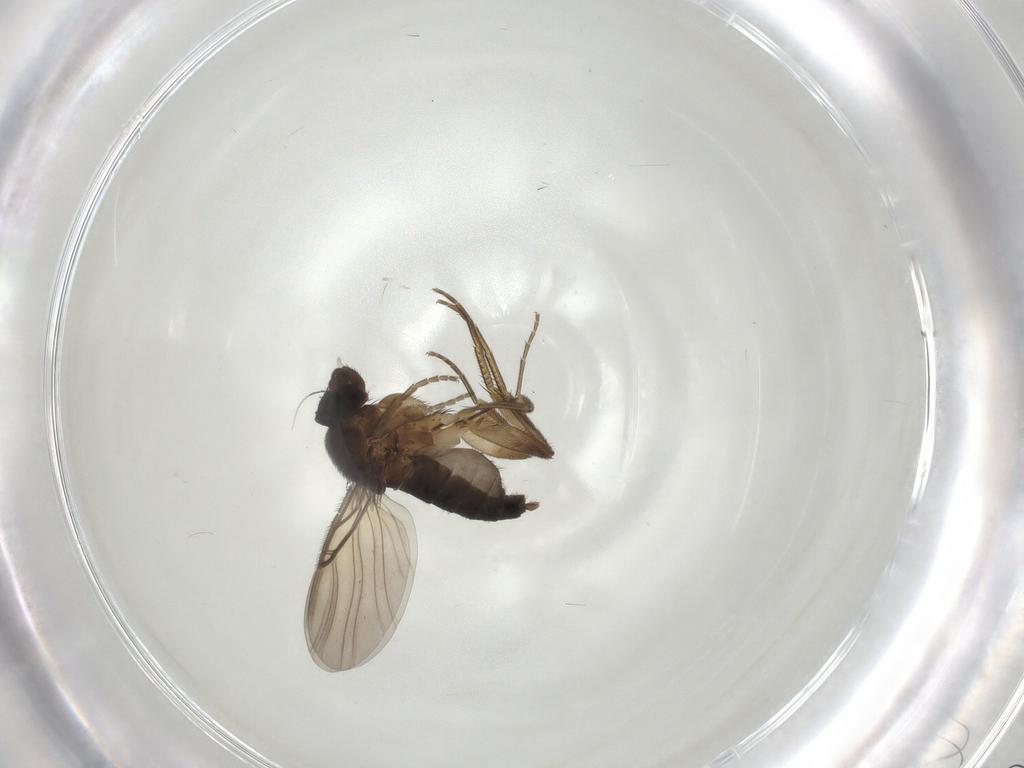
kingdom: Animalia
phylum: Arthropoda
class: Insecta
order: Diptera
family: Phoridae
